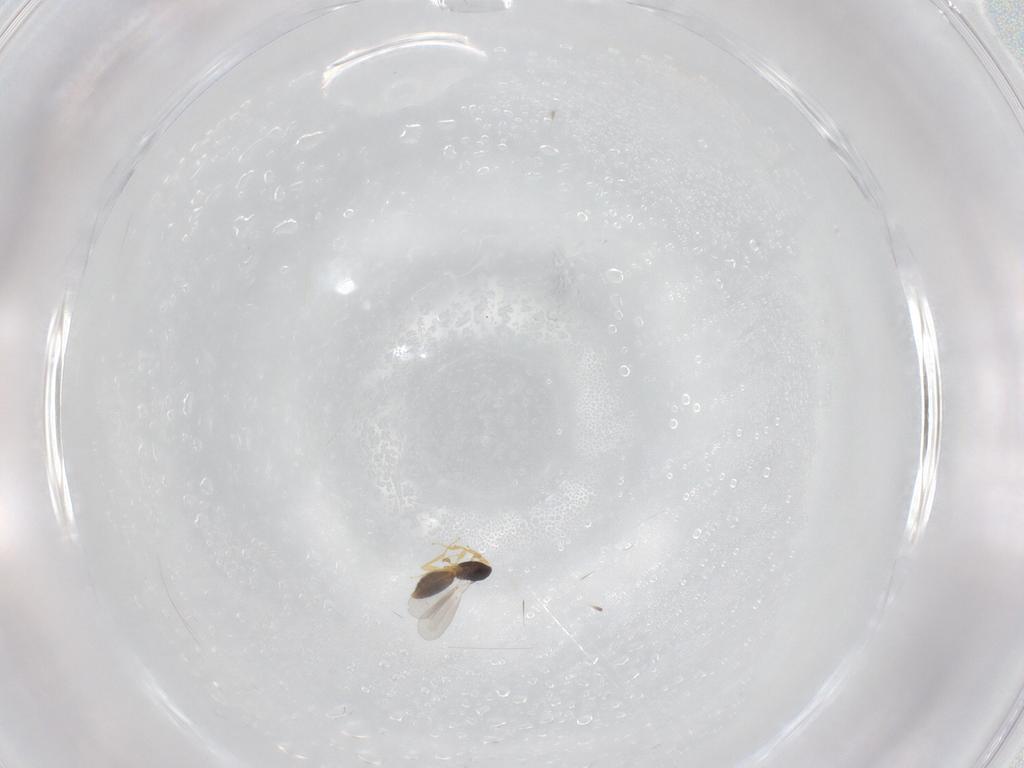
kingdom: Animalia
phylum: Arthropoda
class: Insecta
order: Hymenoptera
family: Platygastridae
